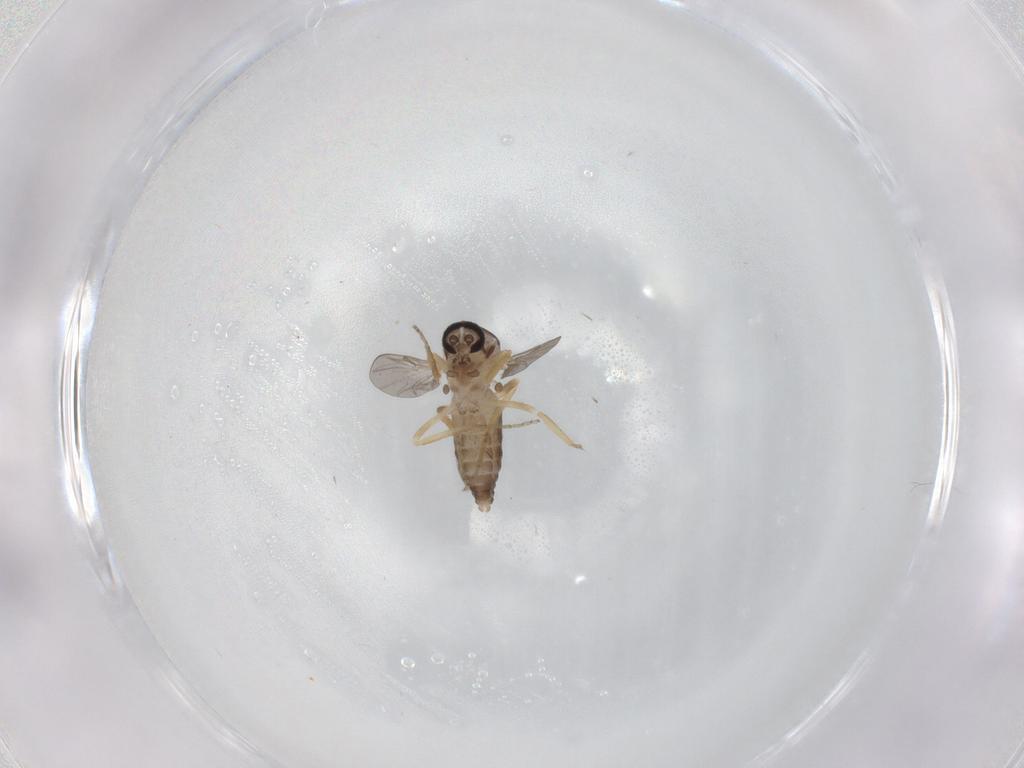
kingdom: Animalia
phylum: Arthropoda
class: Insecta
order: Diptera
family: Ceratopogonidae
